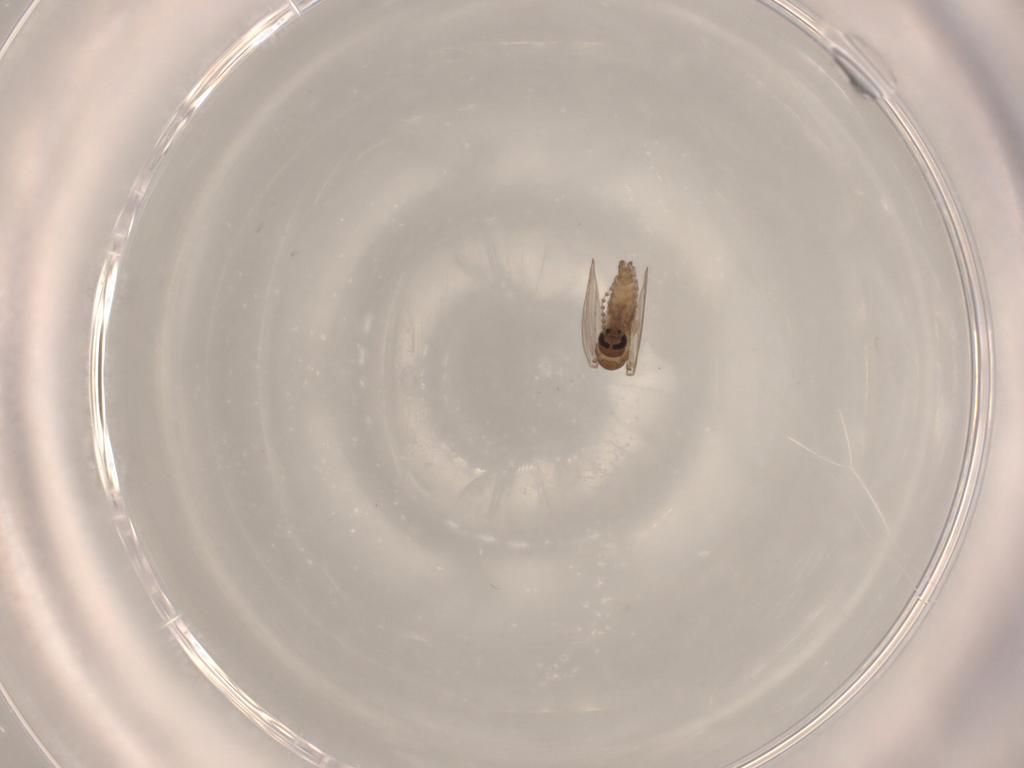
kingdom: Animalia
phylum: Arthropoda
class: Insecta
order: Diptera
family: Psychodidae
